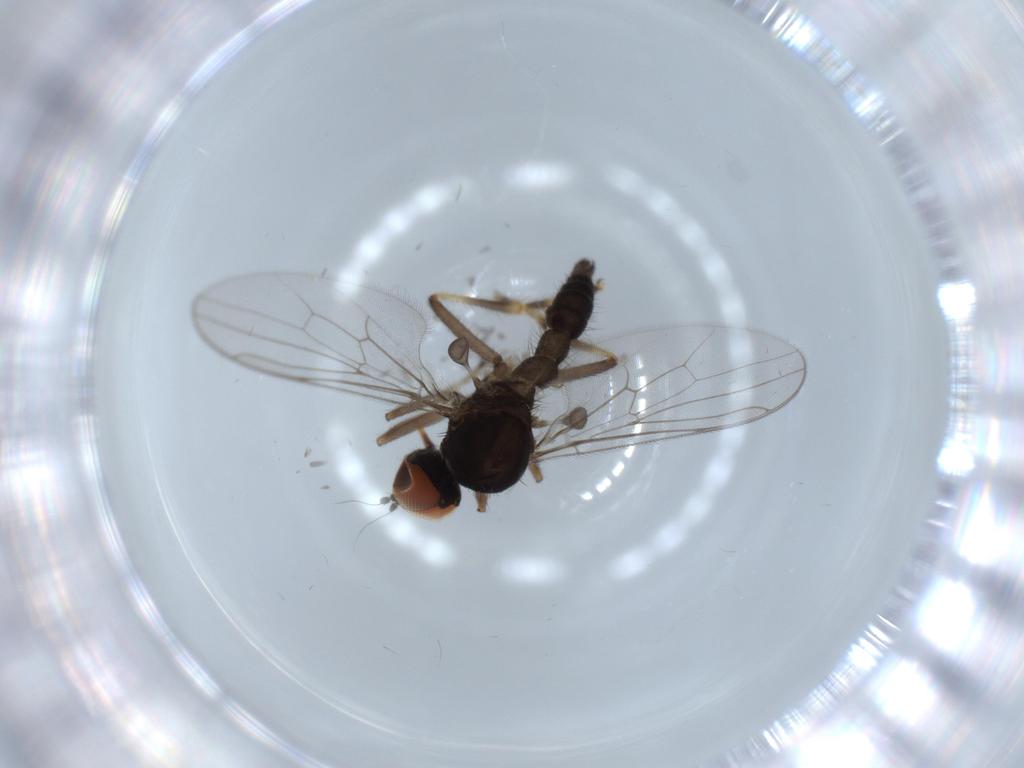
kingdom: Animalia
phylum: Arthropoda
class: Insecta
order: Diptera
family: Hybotidae
